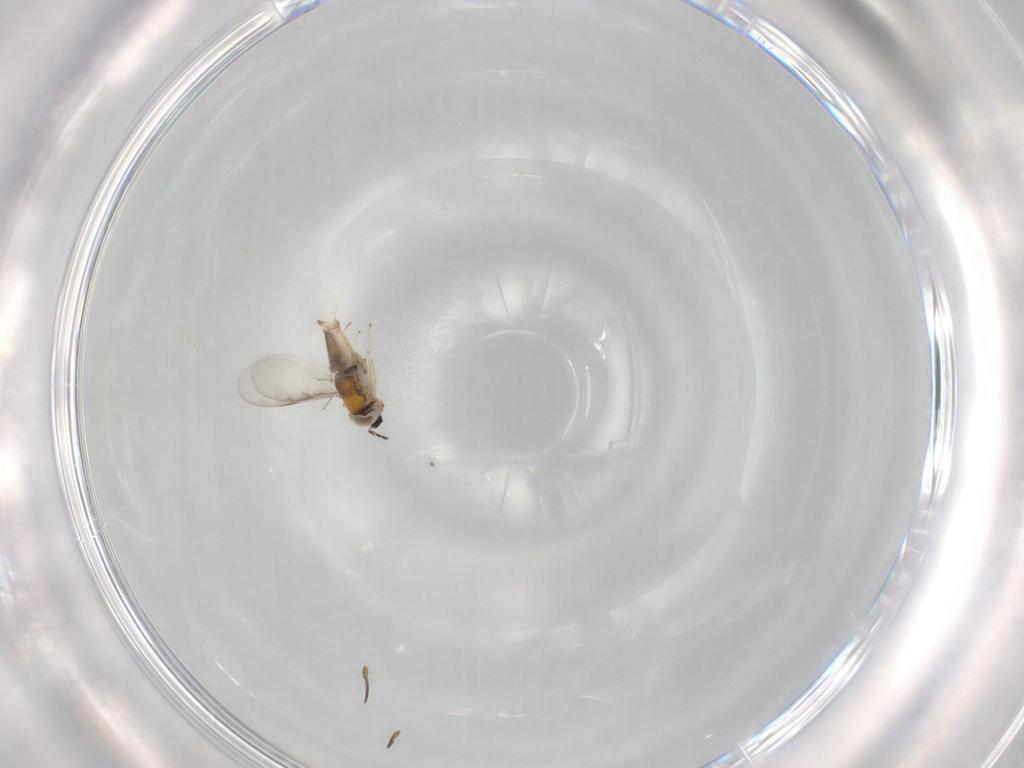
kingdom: Animalia
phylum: Arthropoda
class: Insecta
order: Hymenoptera
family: Encyrtidae
